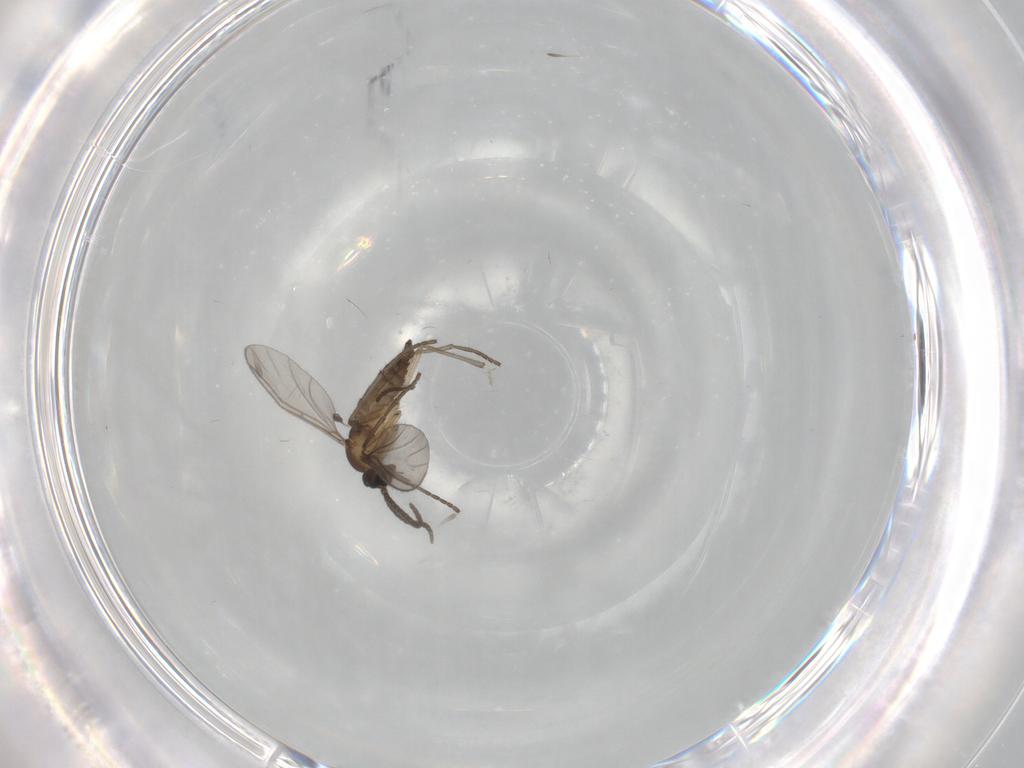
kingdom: Animalia
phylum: Arthropoda
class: Insecta
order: Diptera
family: Sciaridae
